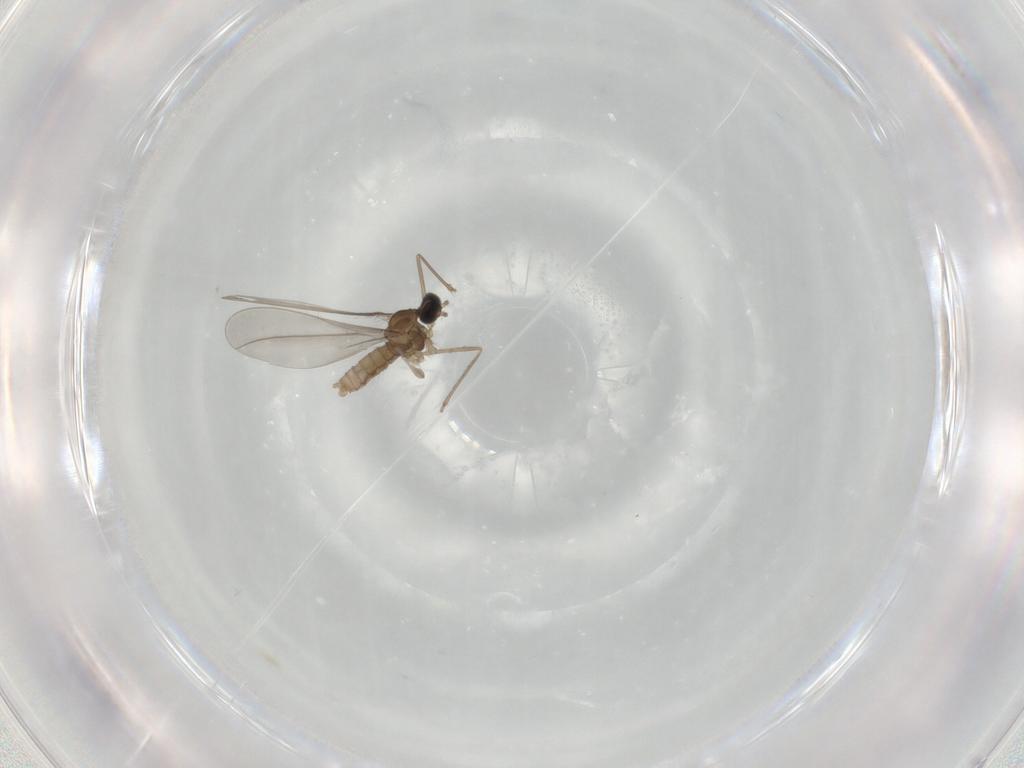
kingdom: Animalia
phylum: Arthropoda
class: Insecta
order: Diptera
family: Cecidomyiidae
